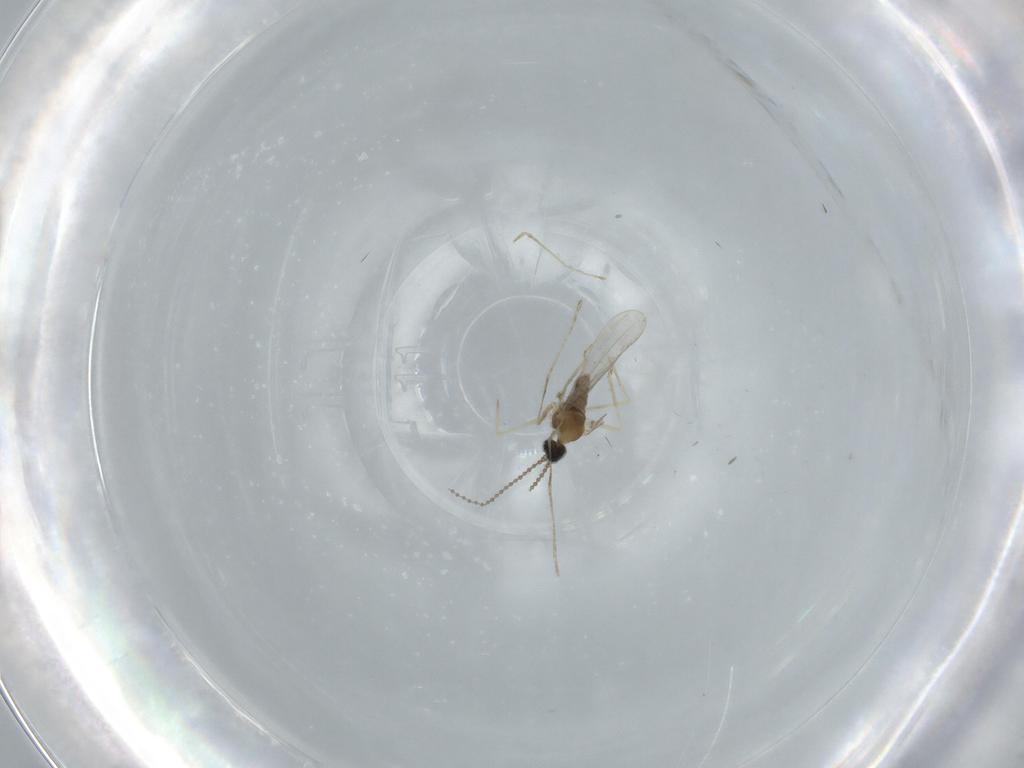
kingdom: Animalia
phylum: Arthropoda
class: Insecta
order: Diptera
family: Cecidomyiidae
